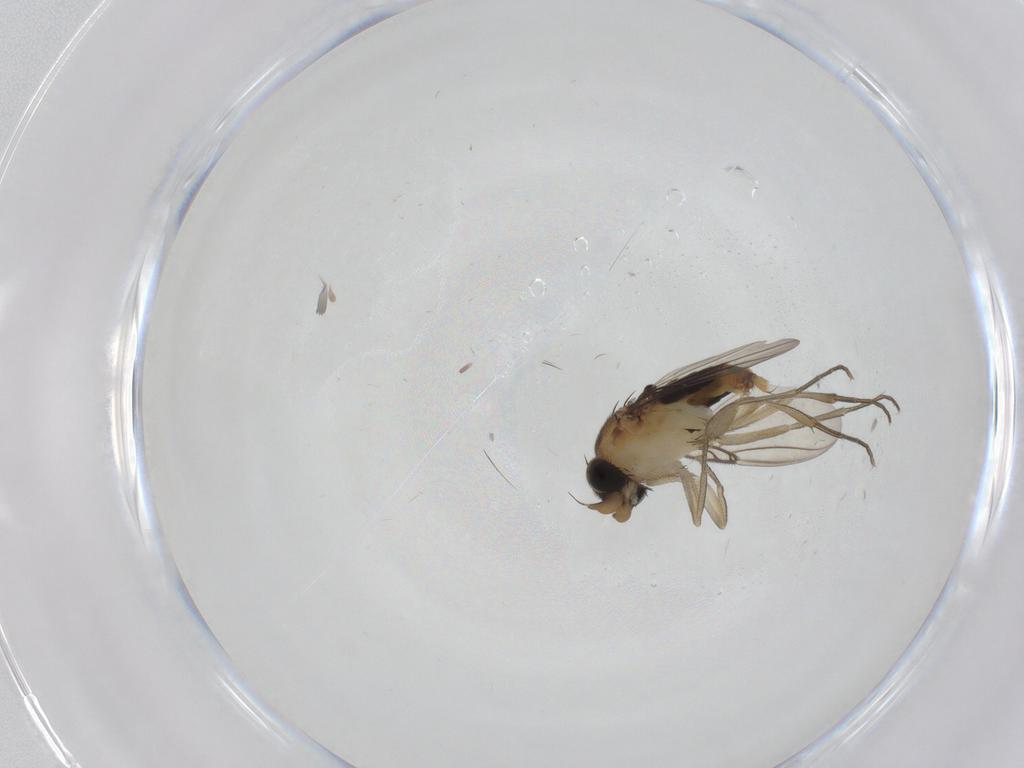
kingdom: Animalia
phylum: Arthropoda
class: Insecta
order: Diptera
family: Phoridae
